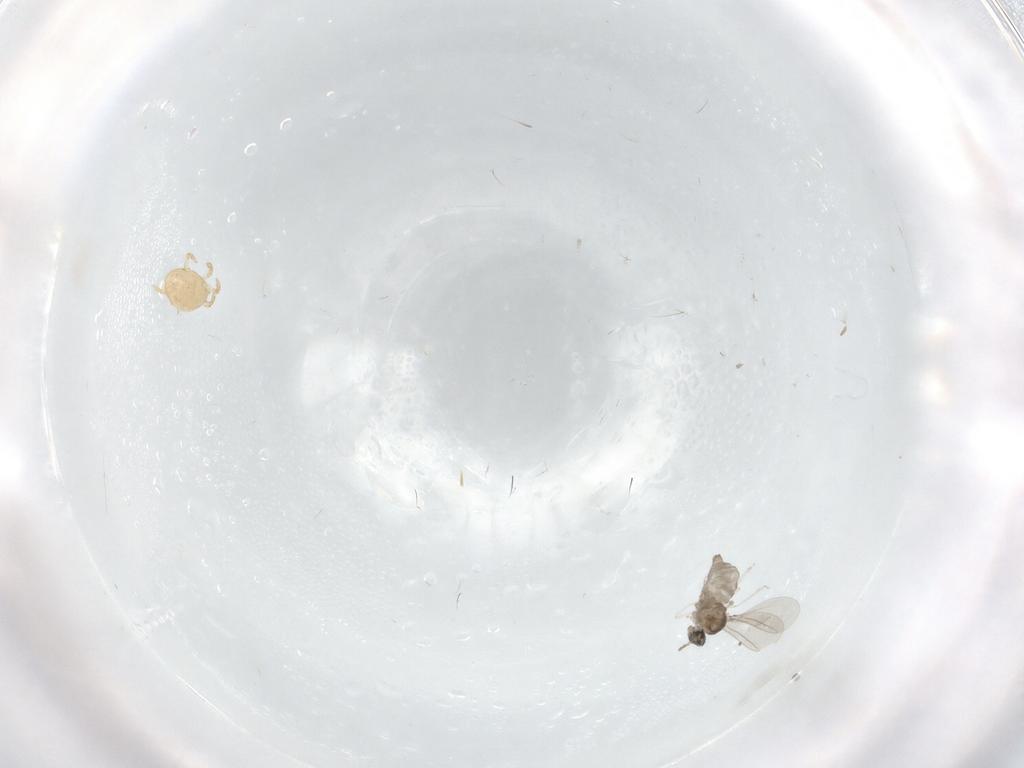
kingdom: Animalia
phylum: Arthropoda
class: Insecta
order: Diptera
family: Cecidomyiidae
